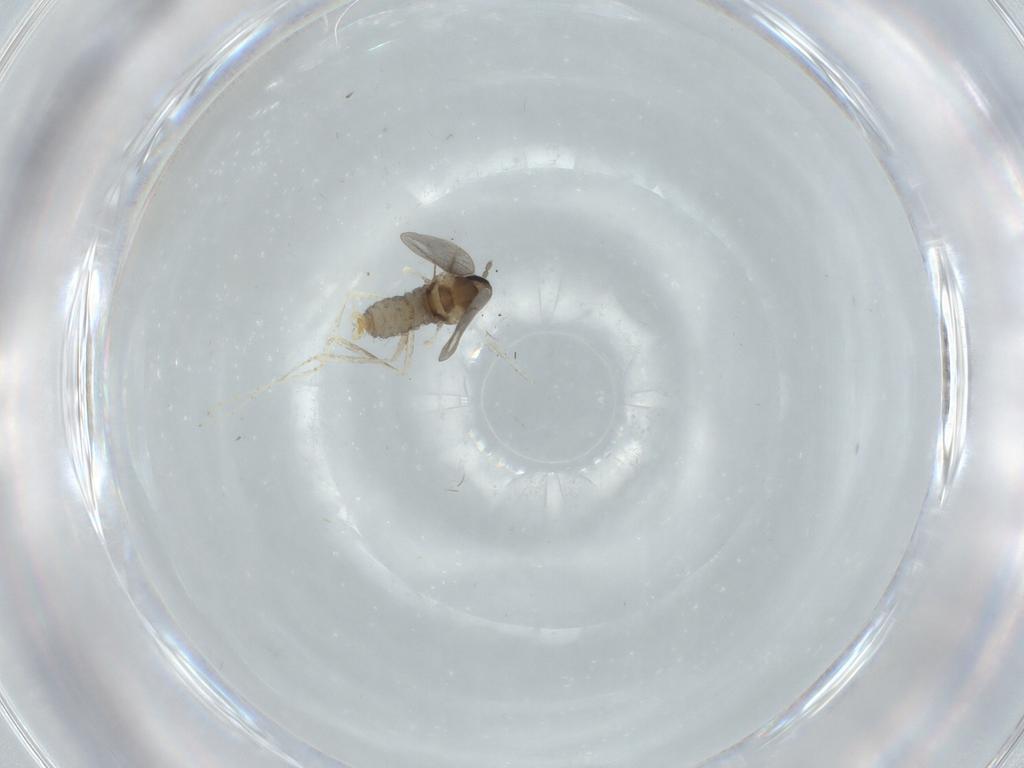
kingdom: Animalia
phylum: Arthropoda
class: Insecta
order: Diptera
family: Cecidomyiidae
